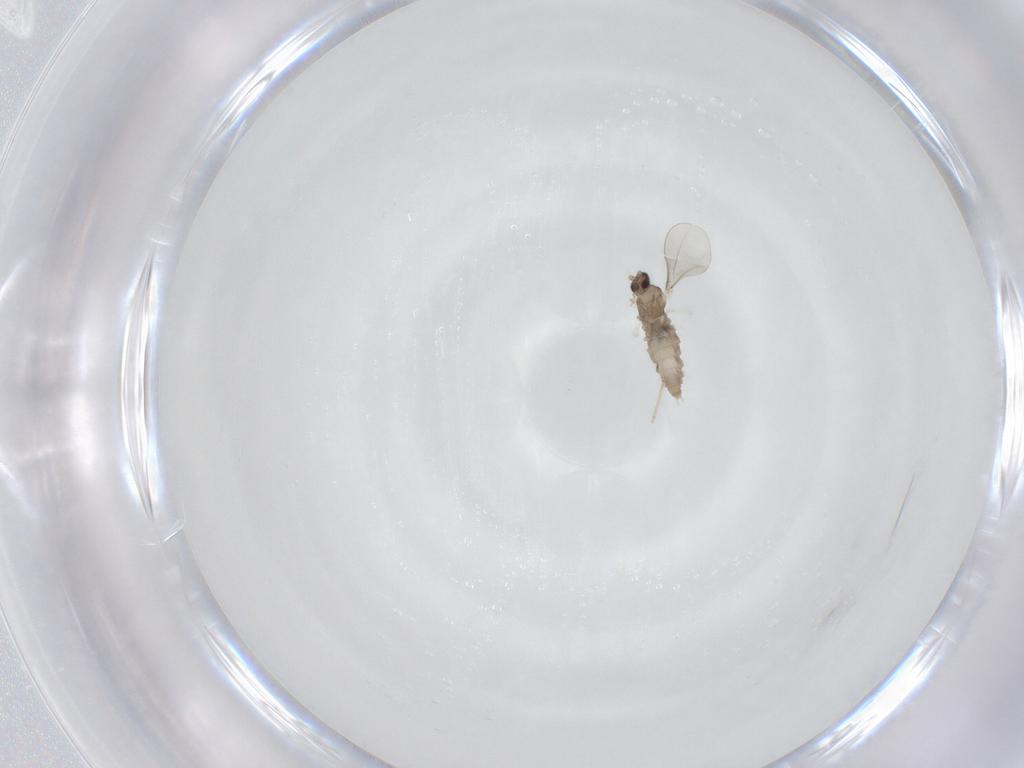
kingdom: Animalia
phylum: Arthropoda
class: Insecta
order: Diptera
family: Cecidomyiidae
